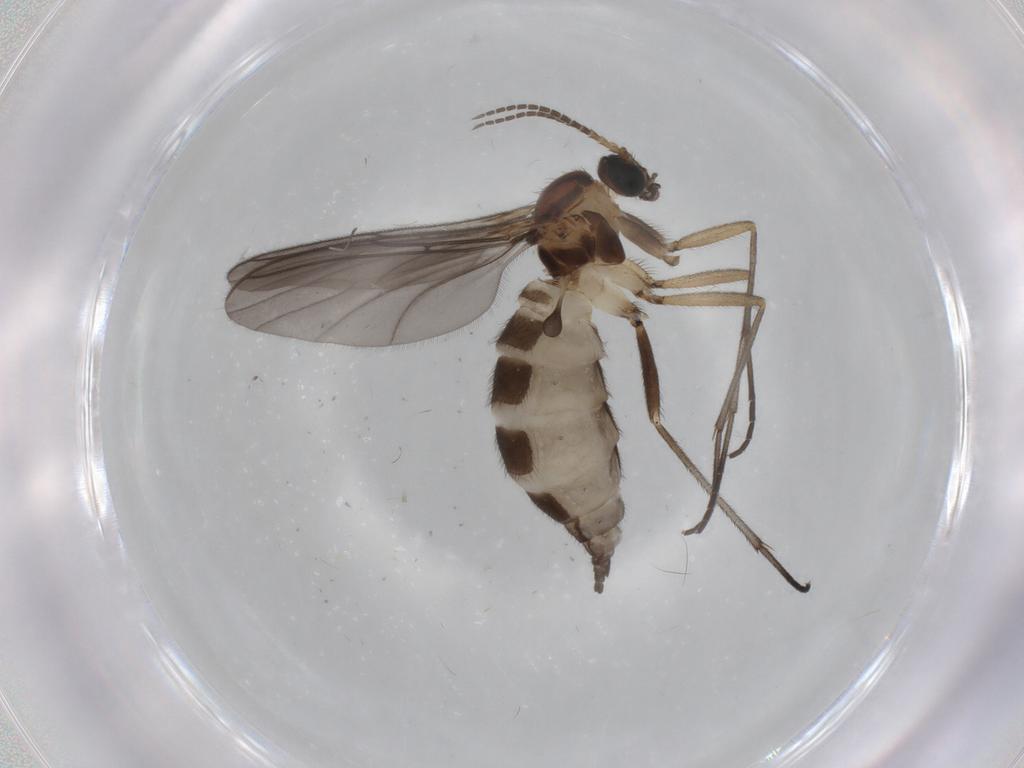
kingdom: Animalia
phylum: Arthropoda
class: Insecta
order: Diptera
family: Sciaridae
